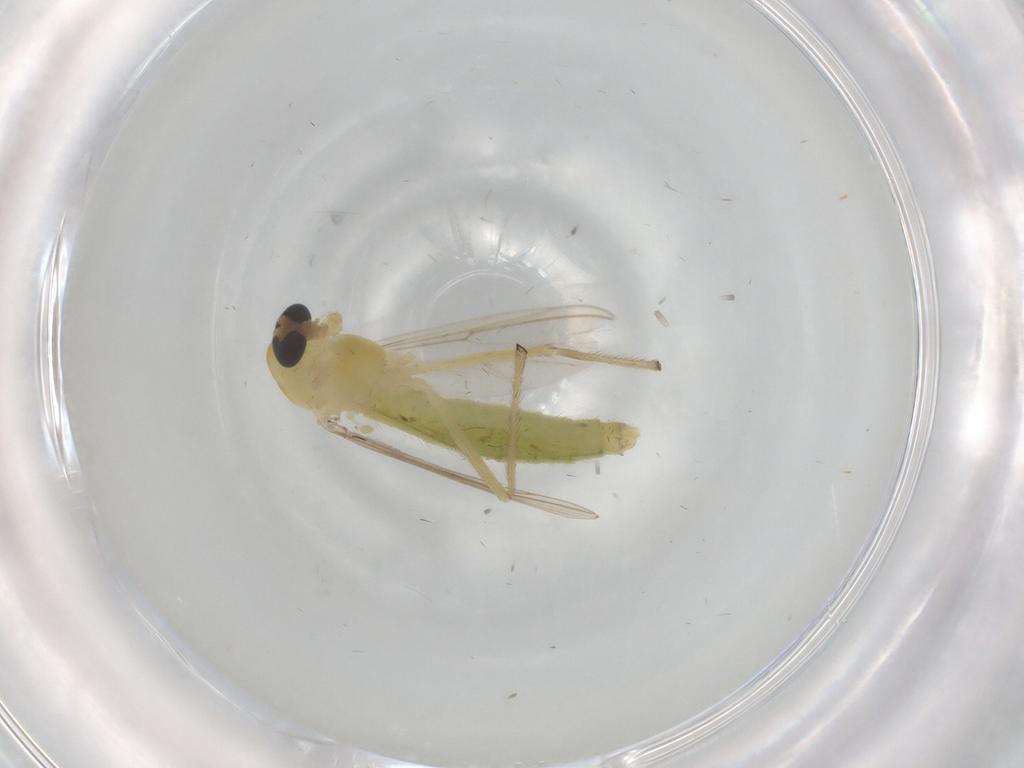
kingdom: Animalia
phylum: Arthropoda
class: Insecta
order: Diptera
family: Chironomidae
